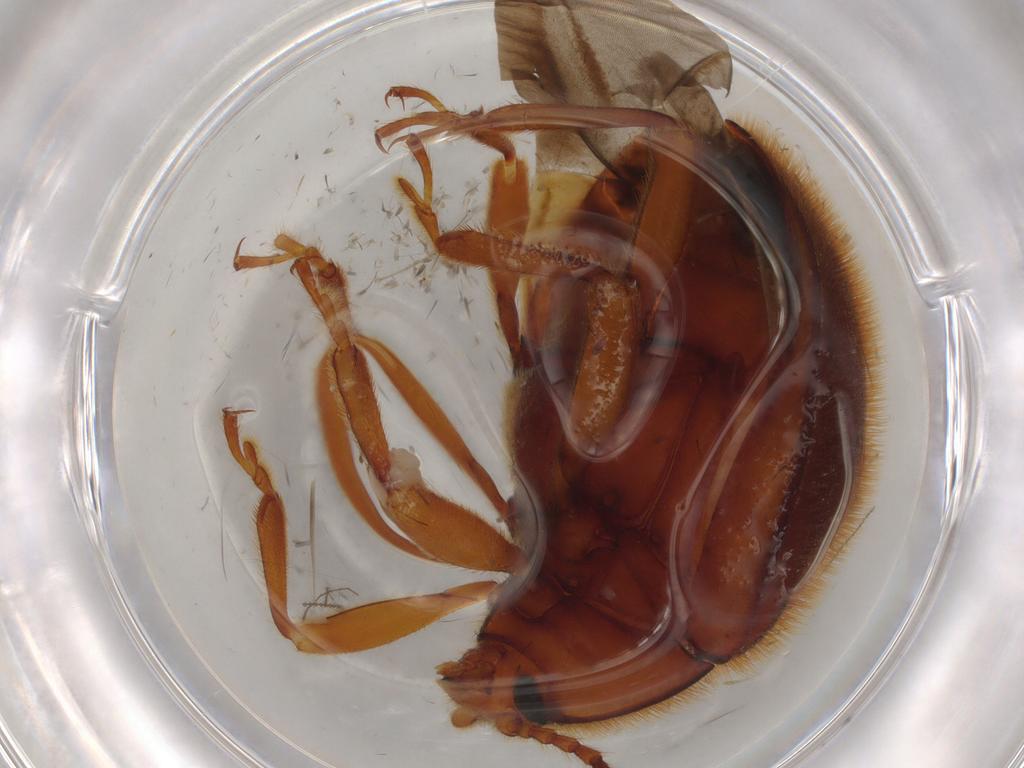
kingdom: Animalia
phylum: Arthropoda
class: Insecta
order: Coleoptera
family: Endomychidae
